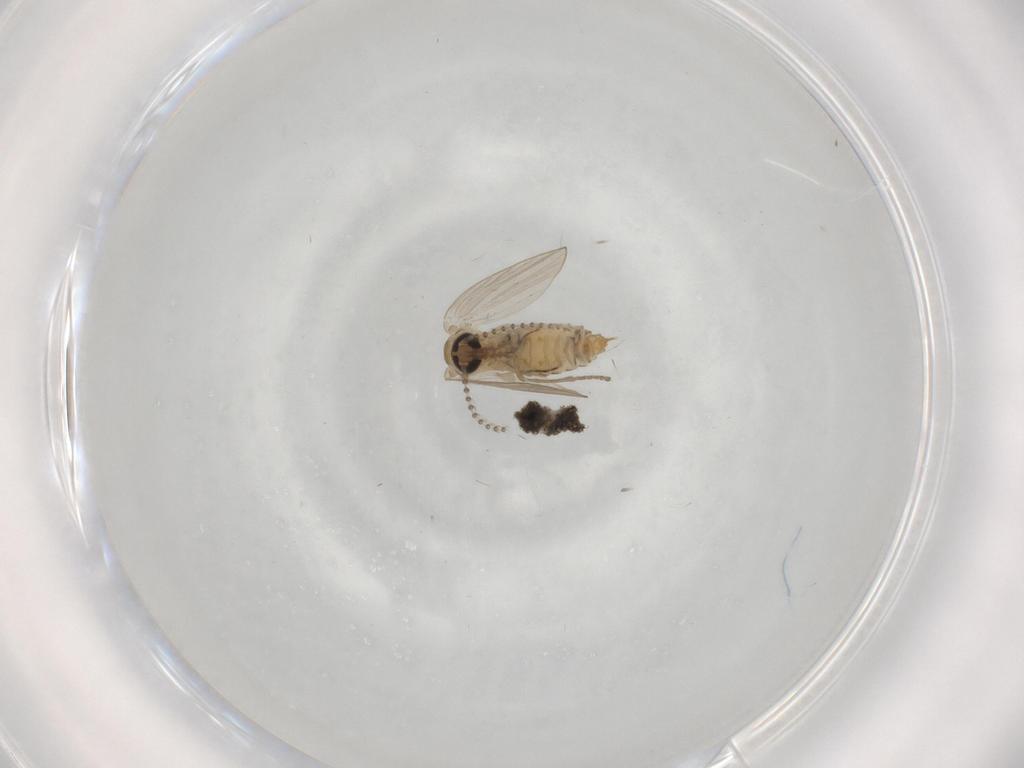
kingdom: Animalia
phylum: Arthropoda
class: Insecta
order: Diptera
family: Psychodidae
